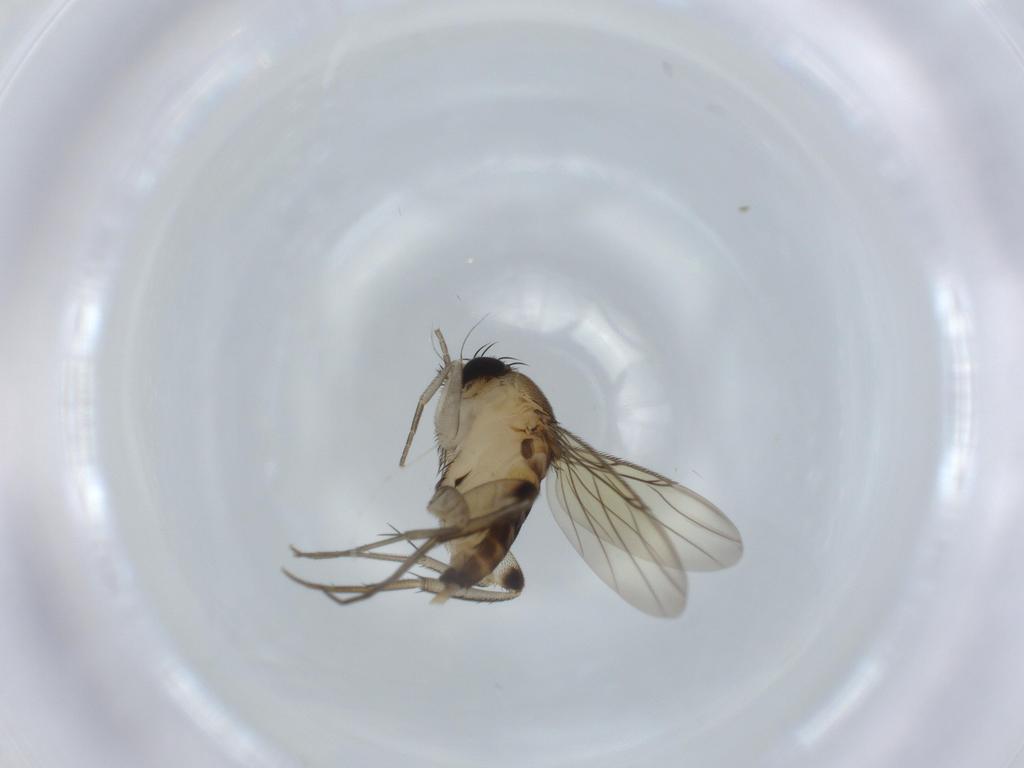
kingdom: Animalia
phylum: Arthropoda
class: Insecta
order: Diptera
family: Phoridae
